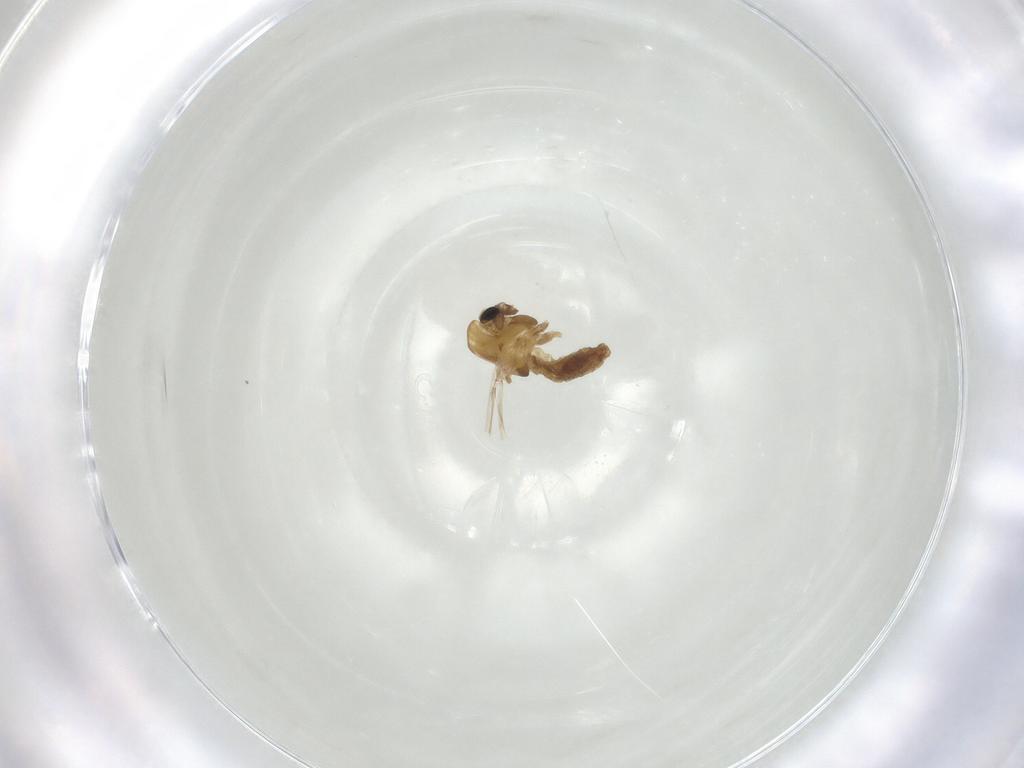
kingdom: Animalia
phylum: Arthropoda
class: Insecta
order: Diptera
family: Chironomidae
